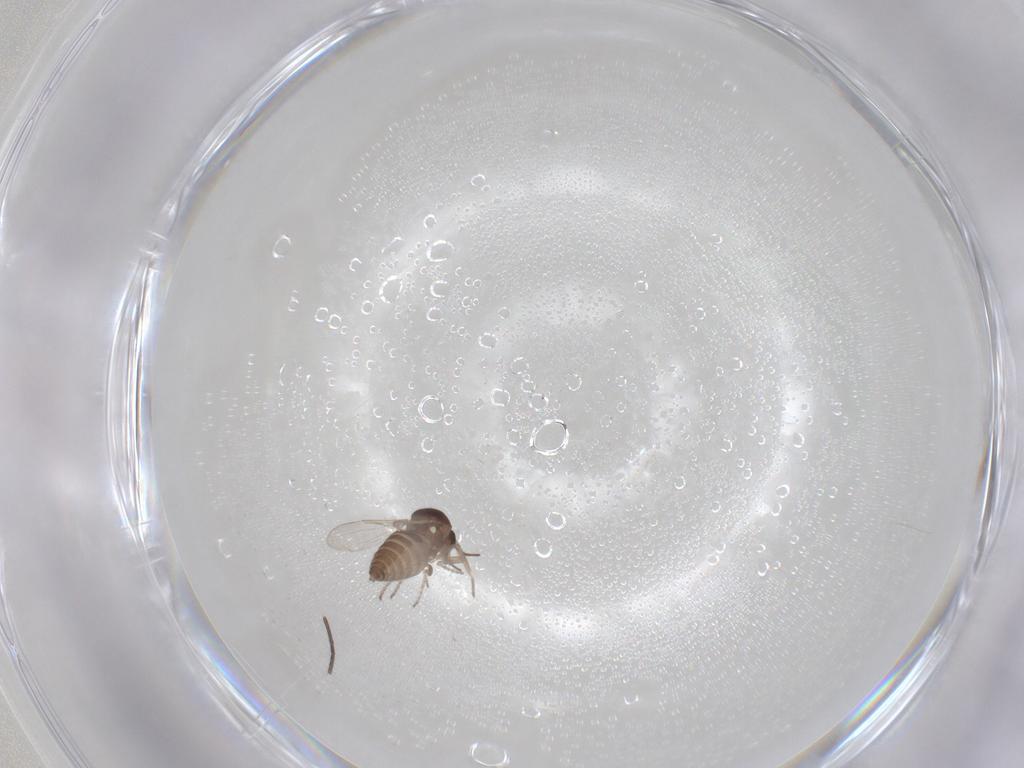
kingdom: Animalia
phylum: Arthropoda
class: Insecta
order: Diptera
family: Ceratopogonidae
